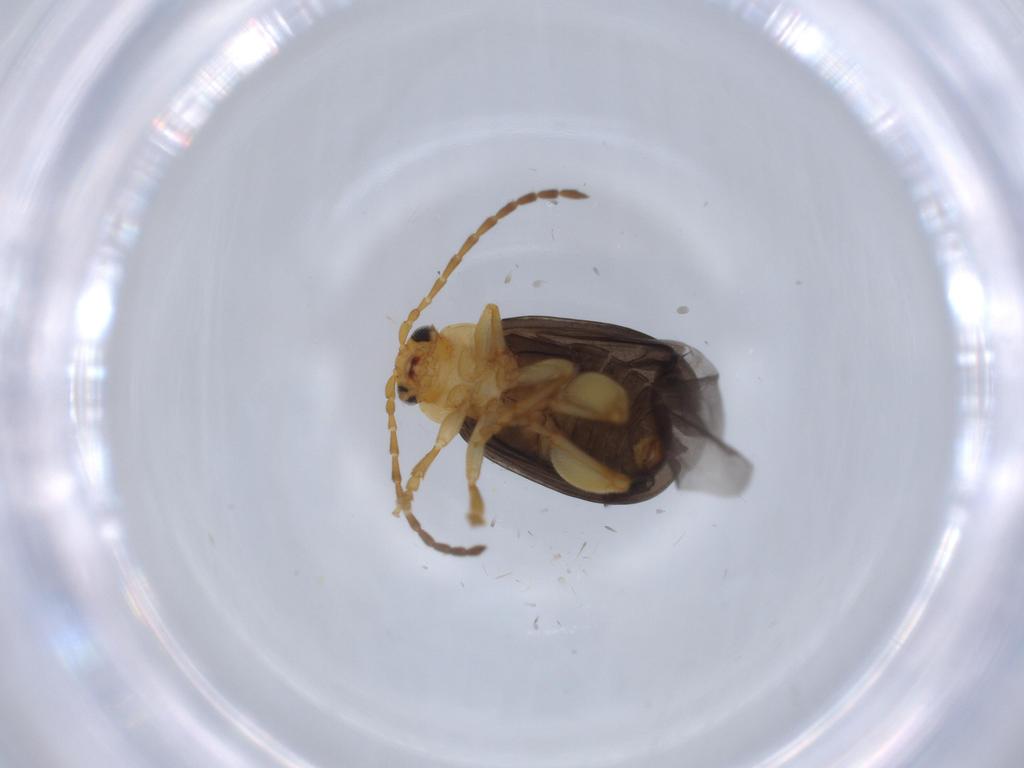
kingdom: Animalia
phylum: Arthropoda
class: Insecta
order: Coleoptera
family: Chrysomelidae
